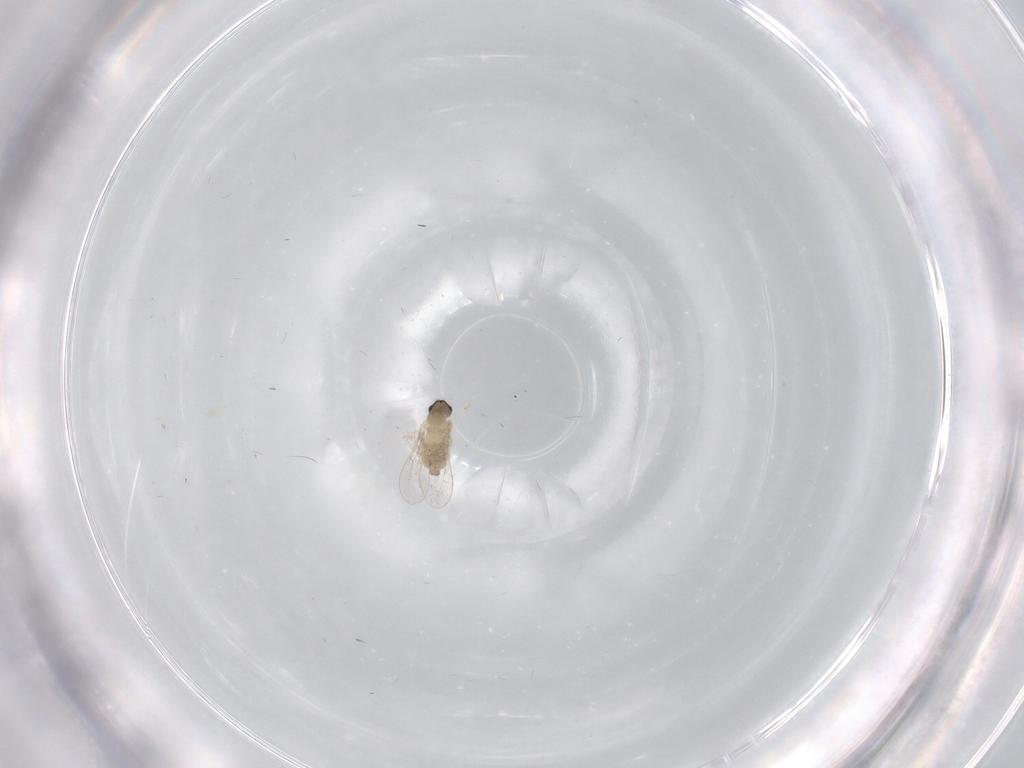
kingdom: Animalia
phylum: Arthropoda
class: Insecta
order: Diptera
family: Cecidomyiidae
